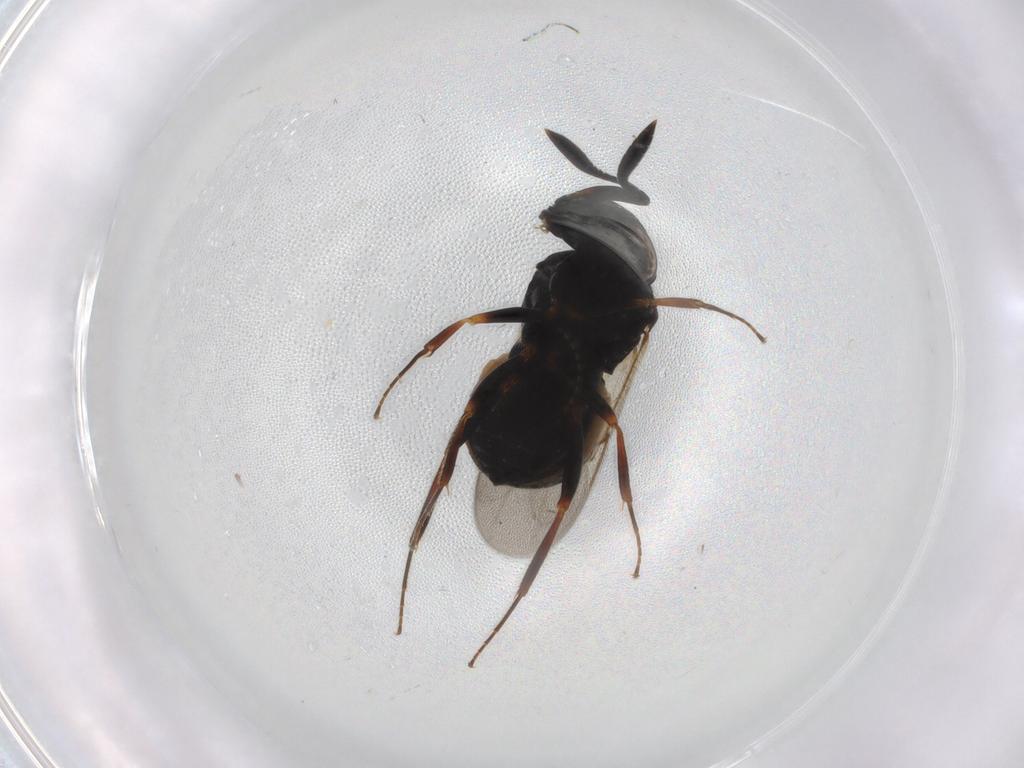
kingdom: Animalia
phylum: Arthropoda
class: Insecta
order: Hymenoptera
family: Scelionidae
